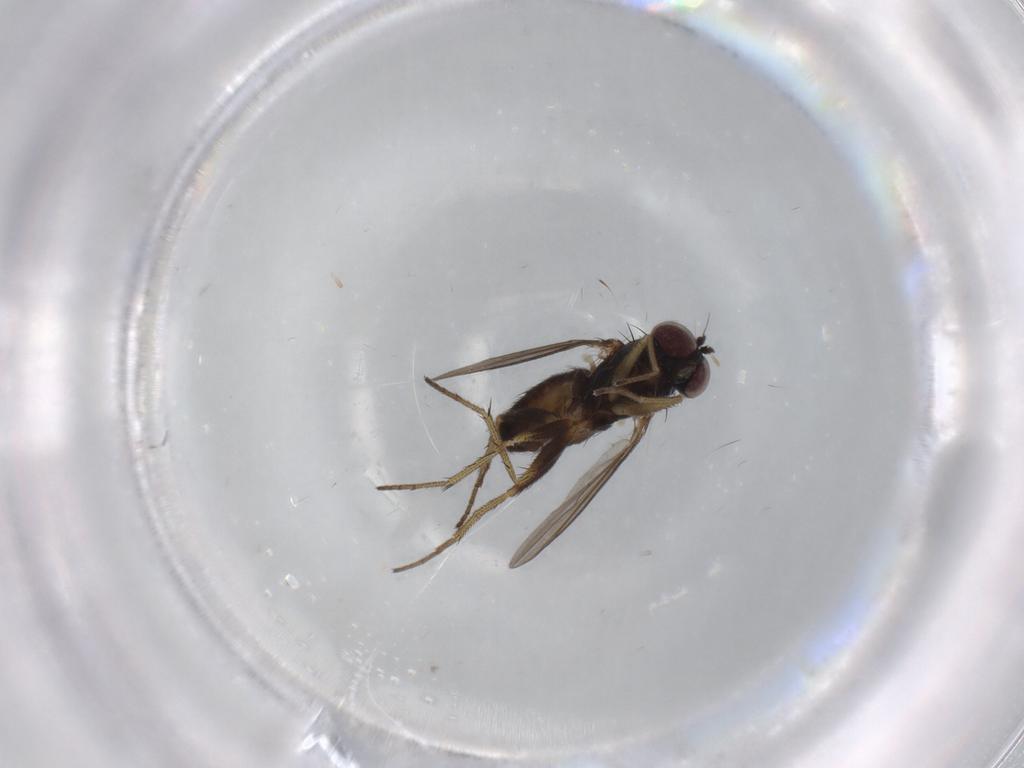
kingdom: Animalia
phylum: Arthropoda
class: Insecta
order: Diptera
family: Dolichopodidae
